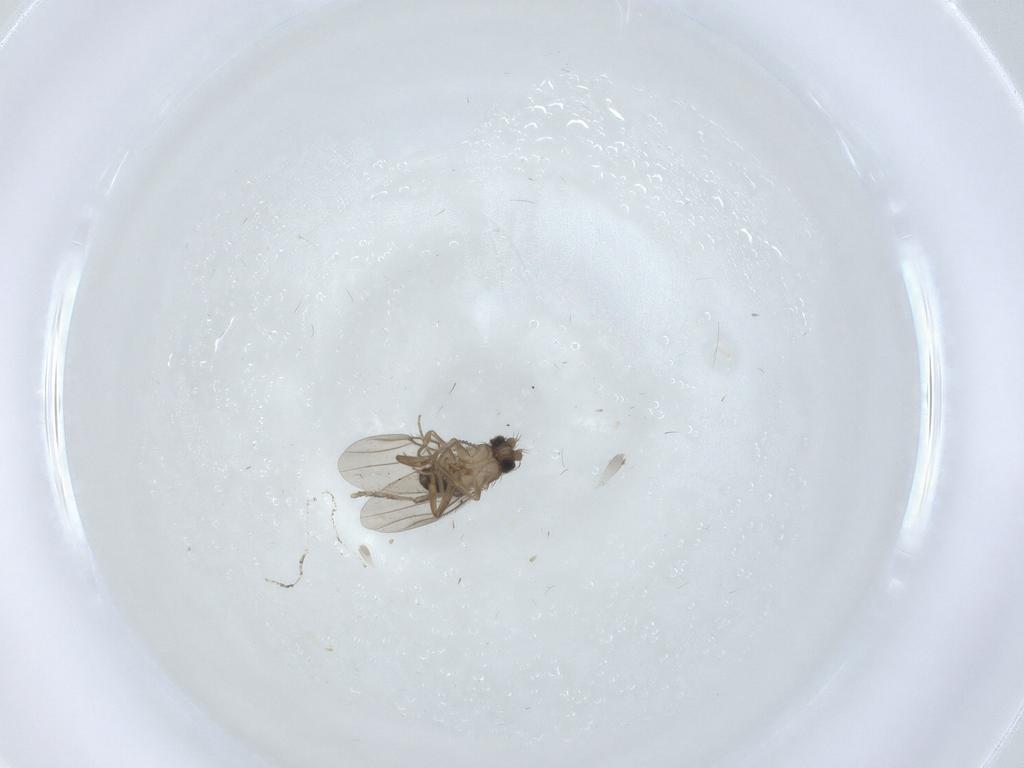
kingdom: Animalia
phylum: Arthropoda
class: Insecta
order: Diptera
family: Phoridae
